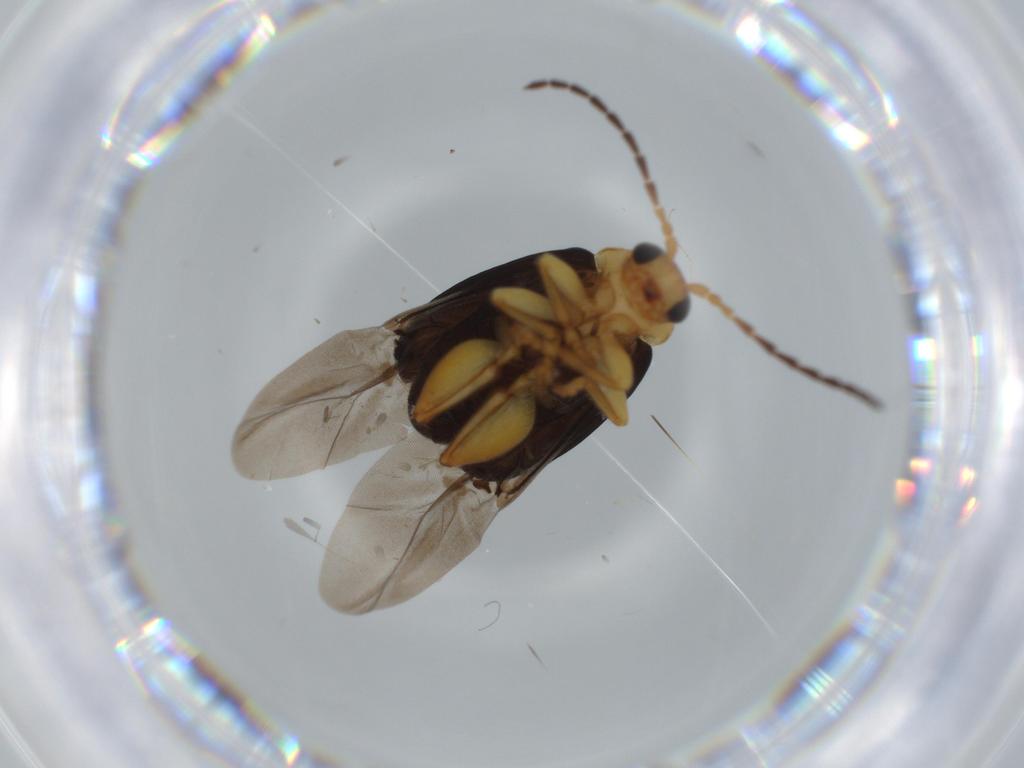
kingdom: Animalia
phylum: Arthropoda
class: Insecta
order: Coleoptera
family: Chrysomelidae
